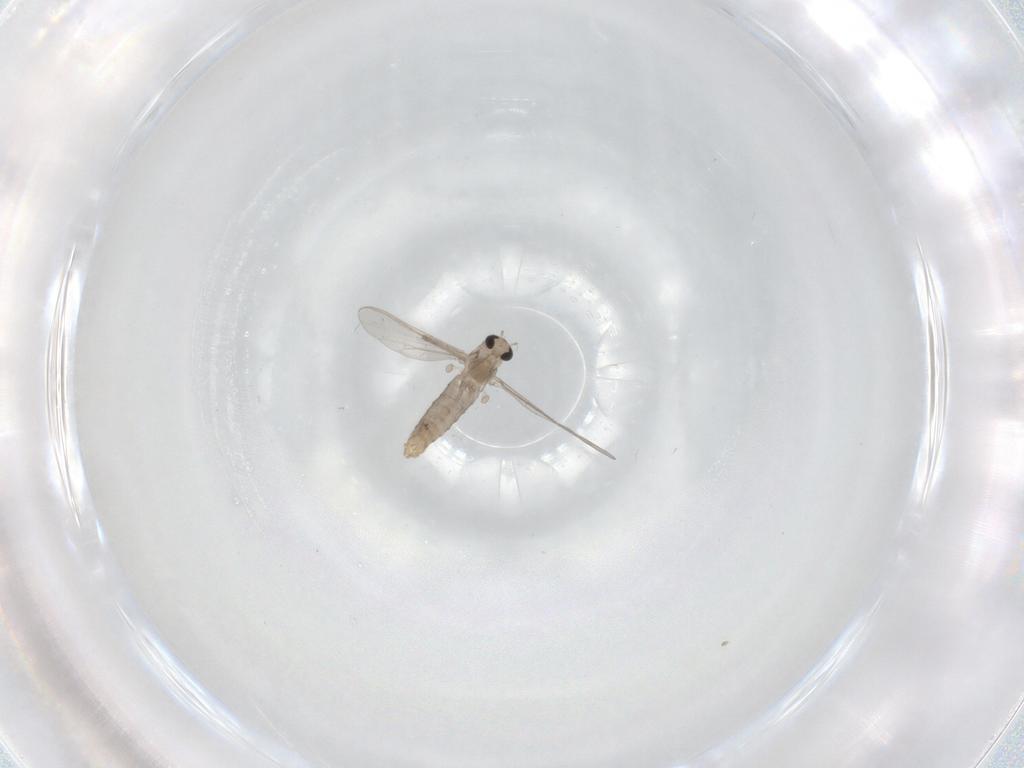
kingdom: Animalia
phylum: Arthropoda
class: Insecta
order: Diptera
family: Chironomidae
